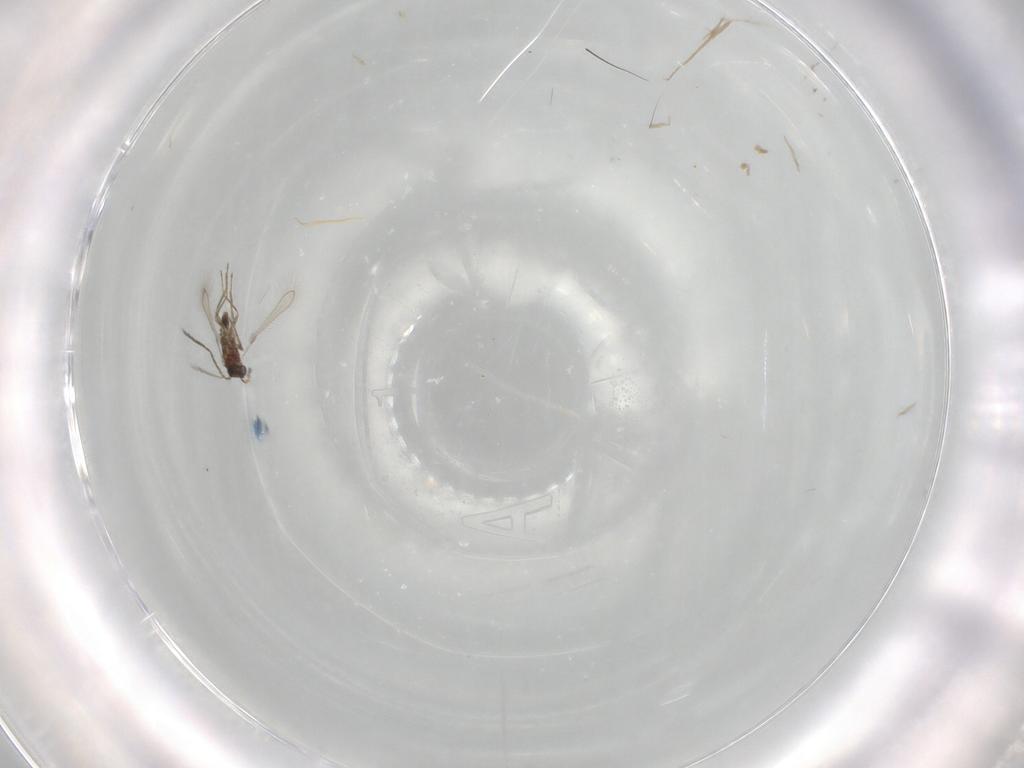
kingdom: Animalia
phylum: Arthropoda
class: Insecta
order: Hymenoptera
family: Mymaridae
